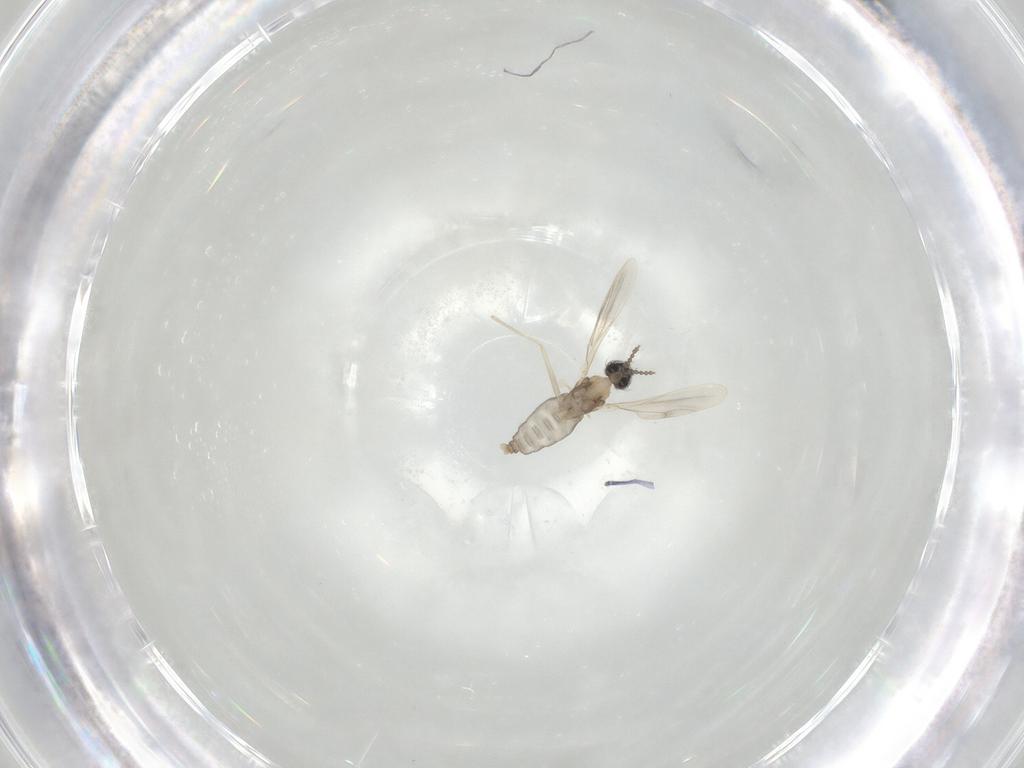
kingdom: Animalia
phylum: Arthropoda
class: Insecta
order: Diptera
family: Cecidomyiidae
